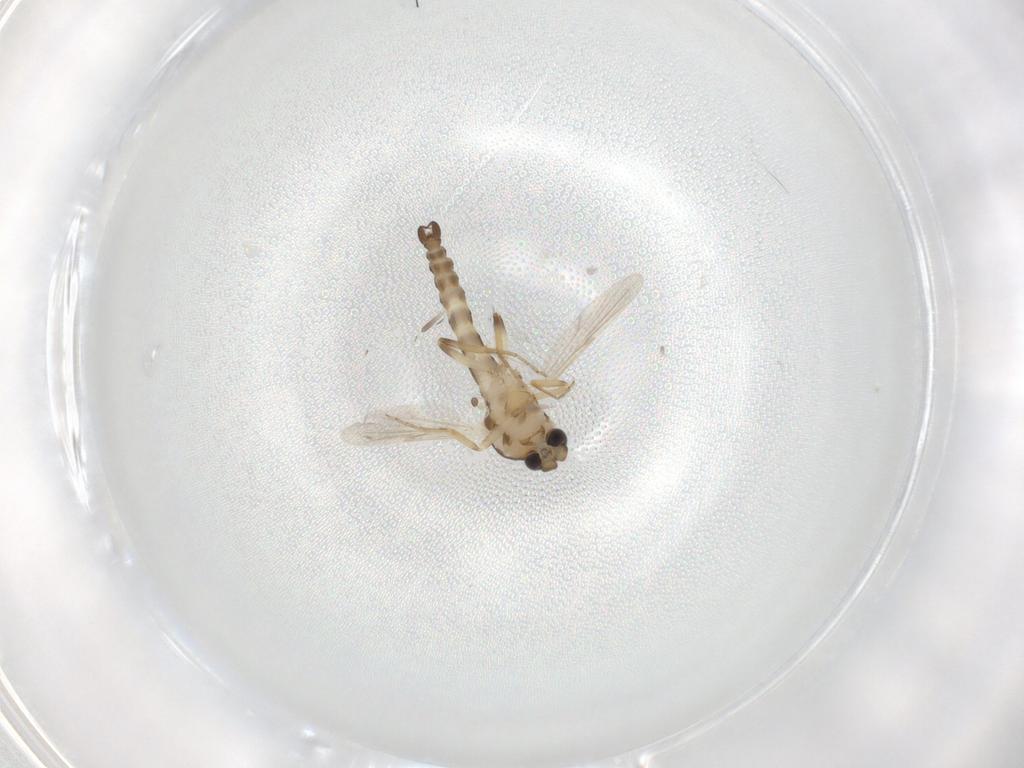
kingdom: Animalia
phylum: Arthropoda
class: Insecta
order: Diptera
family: Ceratopogonidae
